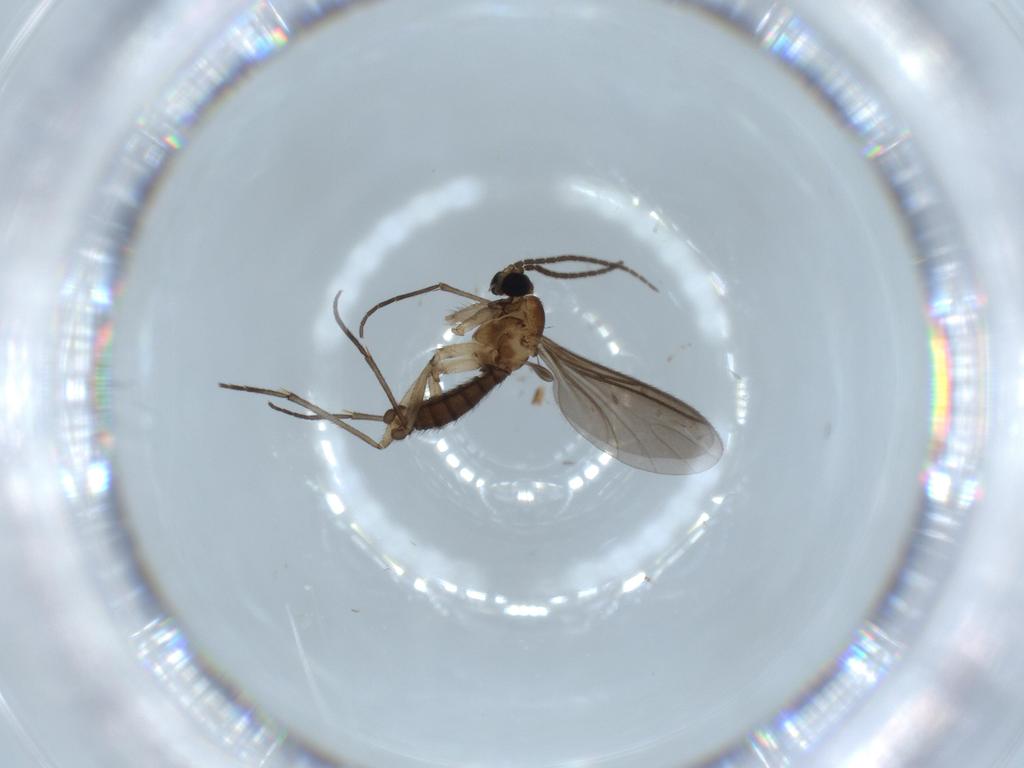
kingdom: Animalia
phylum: Arthropoda
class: Insecta
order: Diptera
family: Sciaridae
